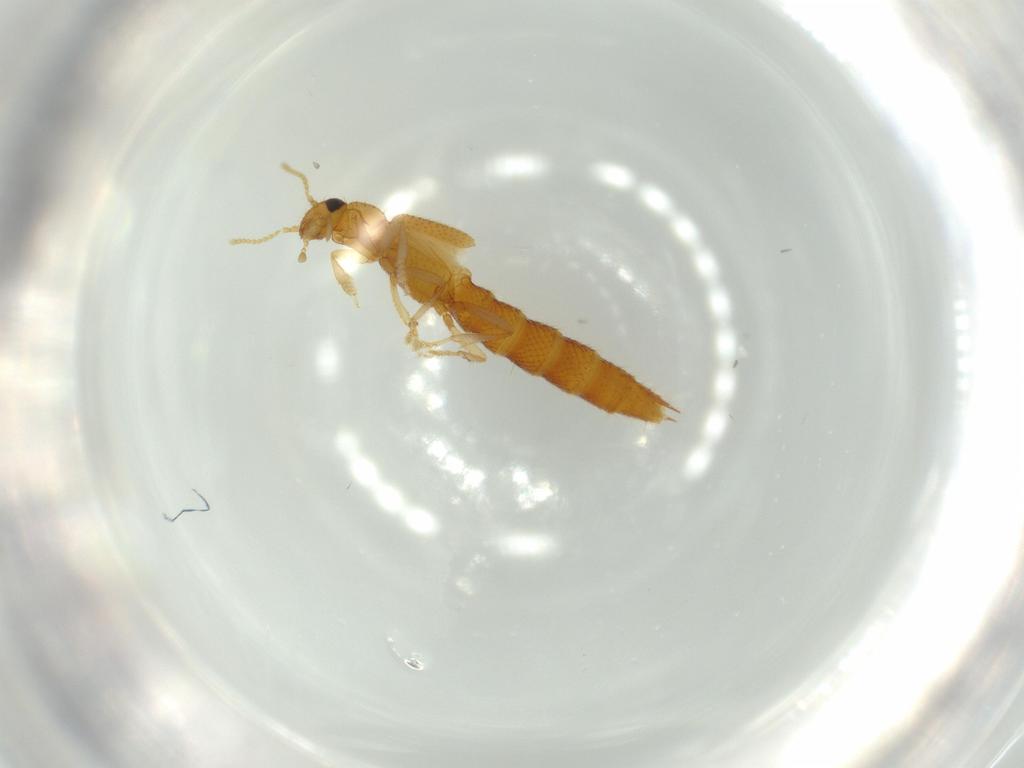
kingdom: Animalia
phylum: Arthropoda
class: Insecta
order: Coleoptera
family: Staphylinidae
